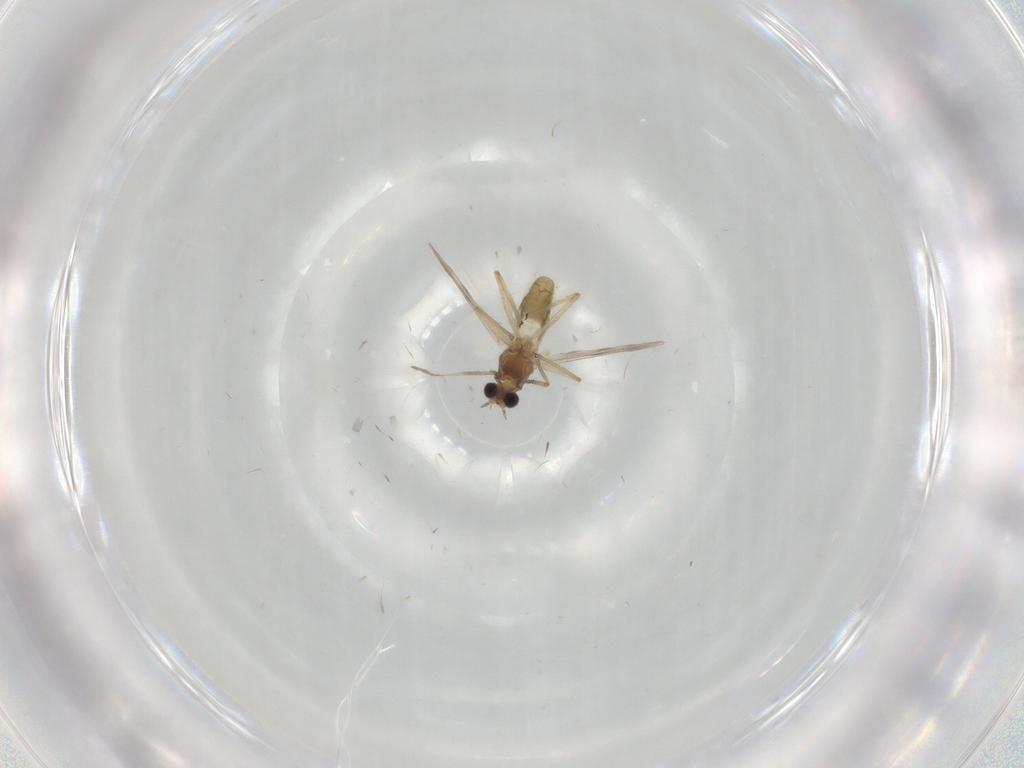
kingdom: Animalia
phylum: Arthropoda
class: Insecta
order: Diptera
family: Chironomidae
